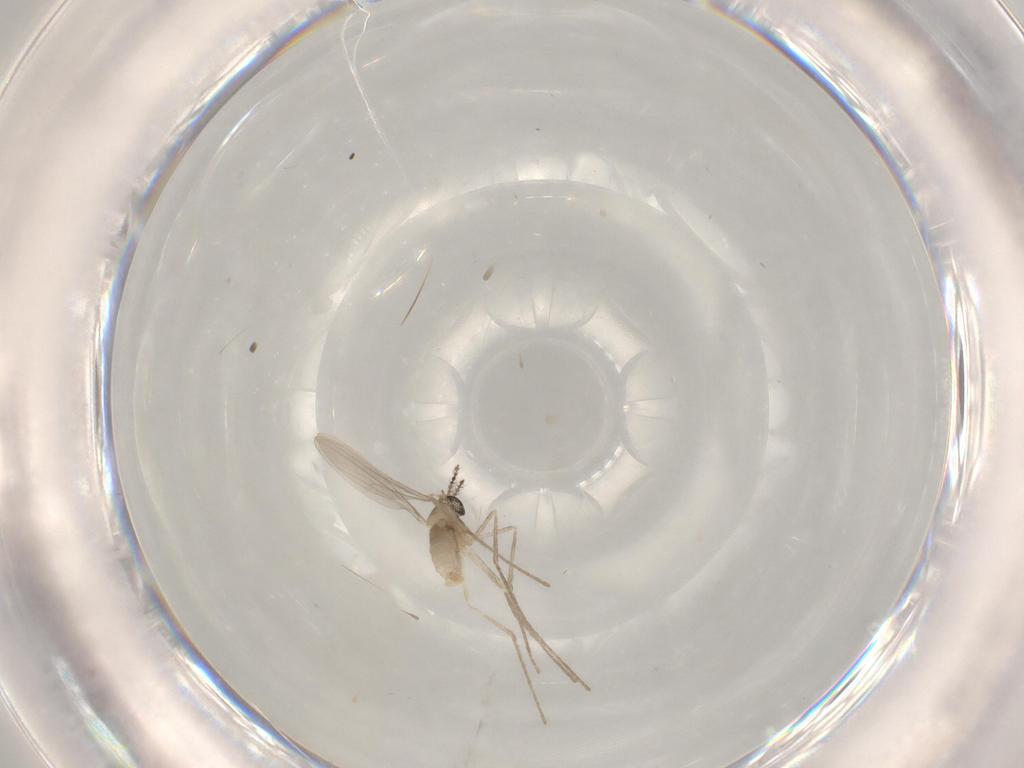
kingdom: Animalia
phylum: Arthropoda
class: Insecta
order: Diptera
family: Cecidomyiidae
